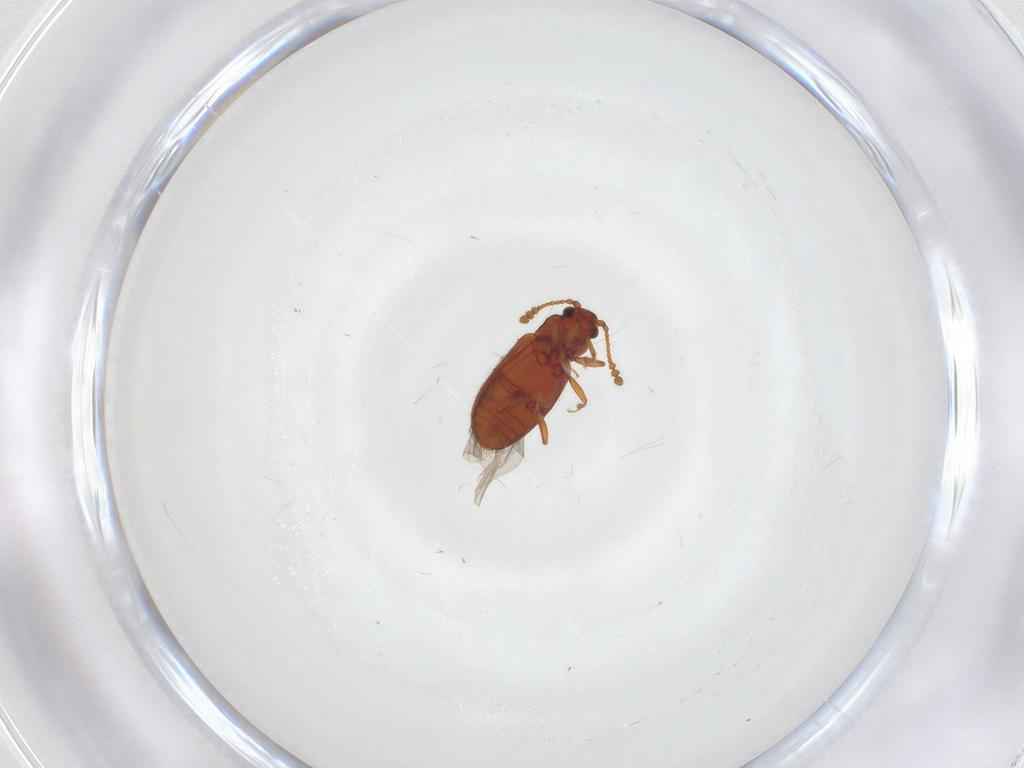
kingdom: Animalia
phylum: Arthropoda
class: Insecta
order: Coleoptera
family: Cryptophagidae
